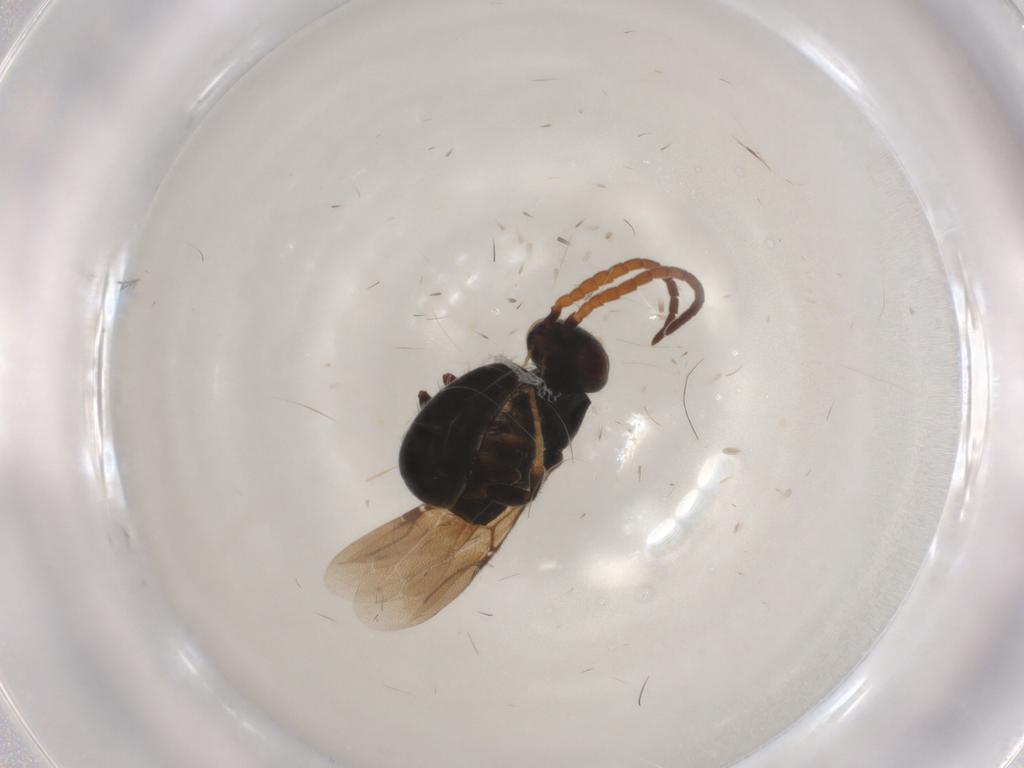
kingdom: Animalia
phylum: Arthropoda
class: Insecta
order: Hymenoptera
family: Bethylidae
